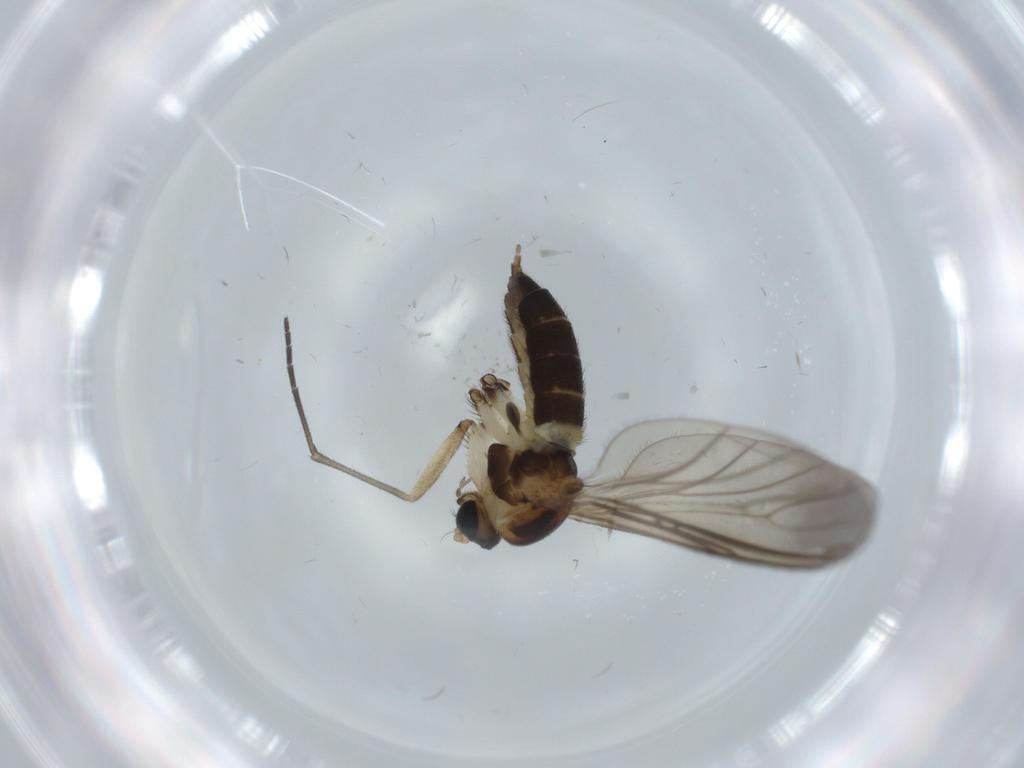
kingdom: Animalia
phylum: Arthropoda
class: Insecta
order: Diptera
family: Sciaridae
